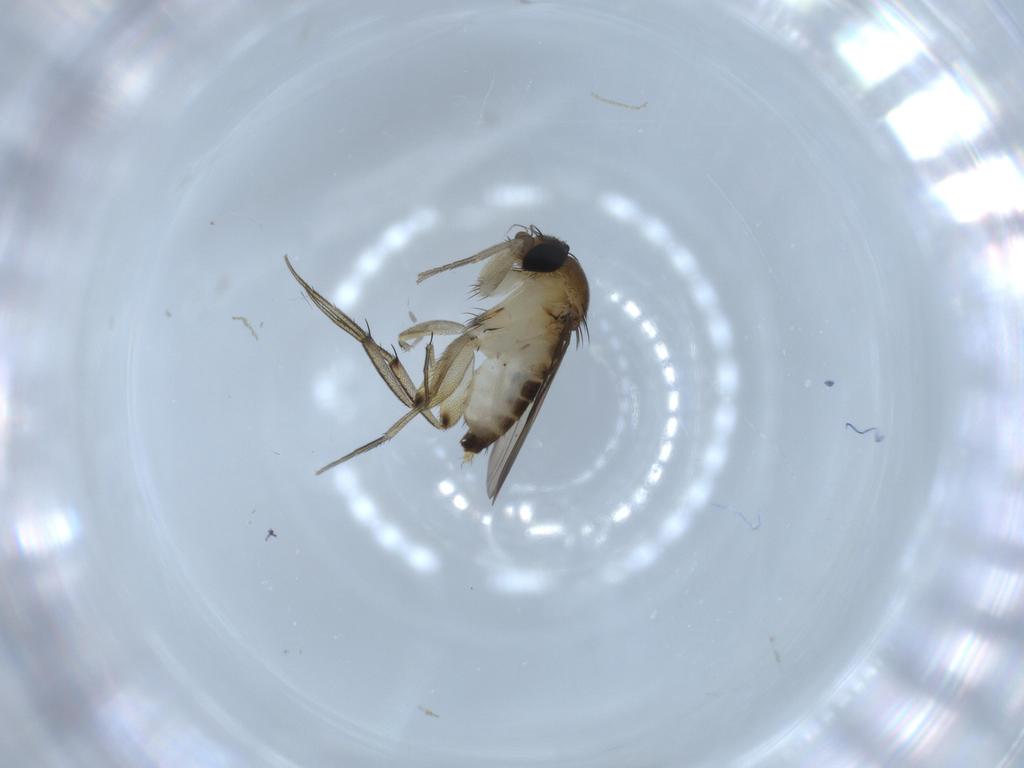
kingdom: Animalia
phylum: Arthropoda
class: Insecta
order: Diptera
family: Phoridae
